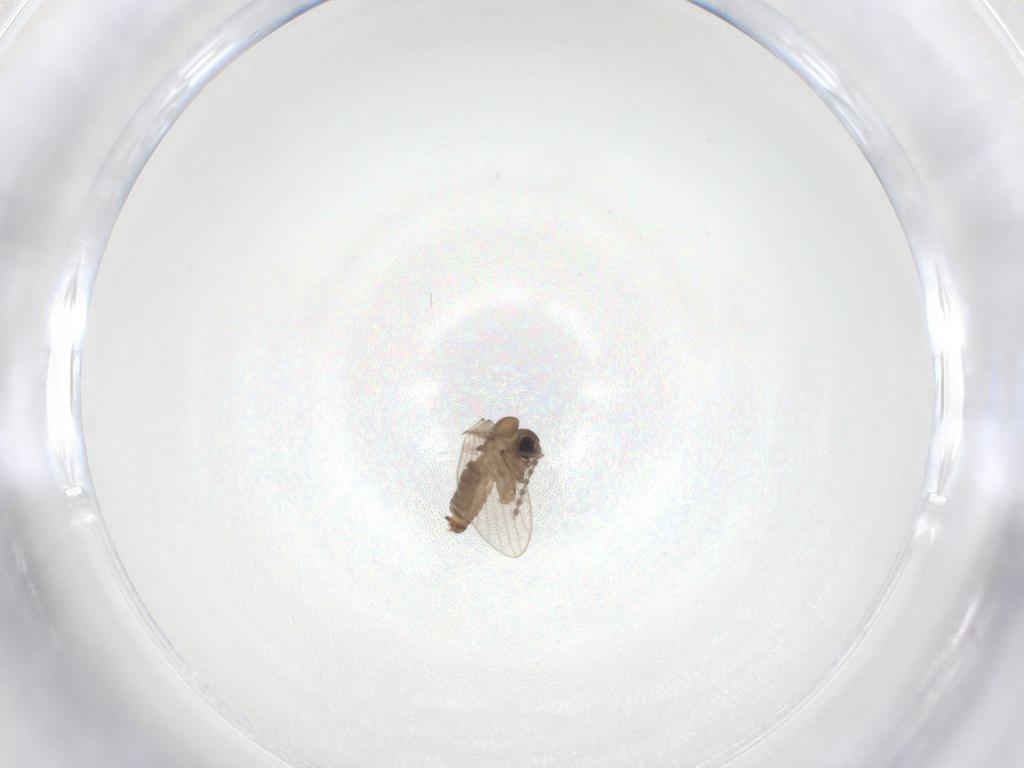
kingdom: Animalia
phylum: Arthropoda
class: Insecta
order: Diptera
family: Psychodidae
